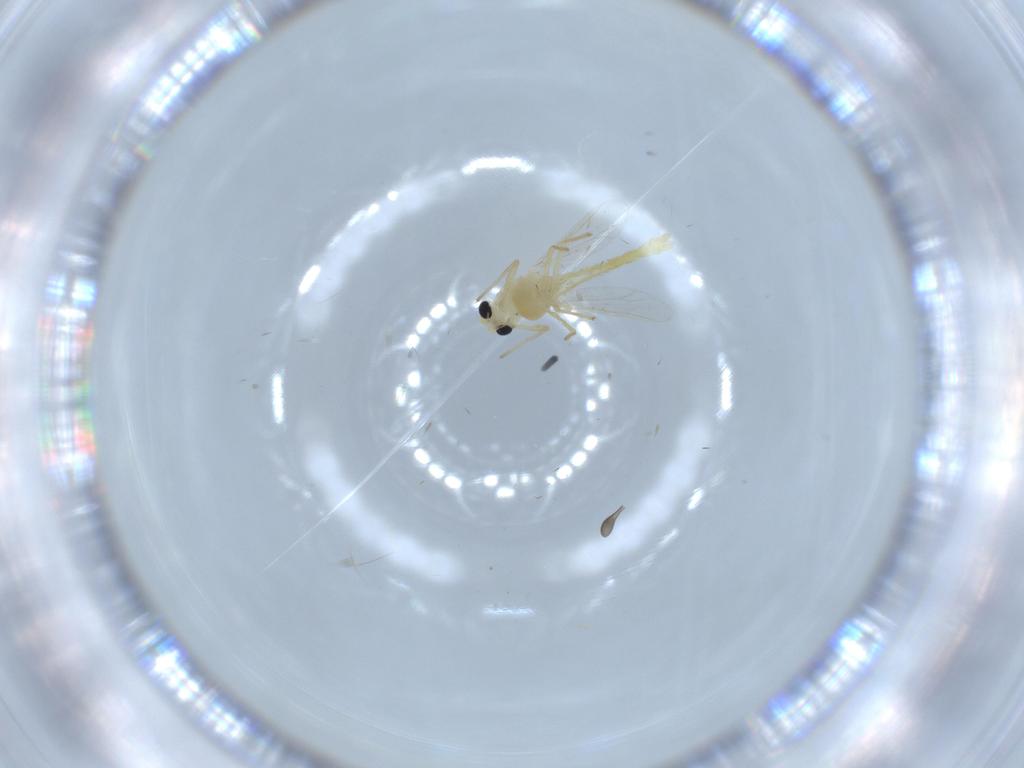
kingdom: Animalia
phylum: Arthropoda
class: Insecta
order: Diptera
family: Chironomidae
